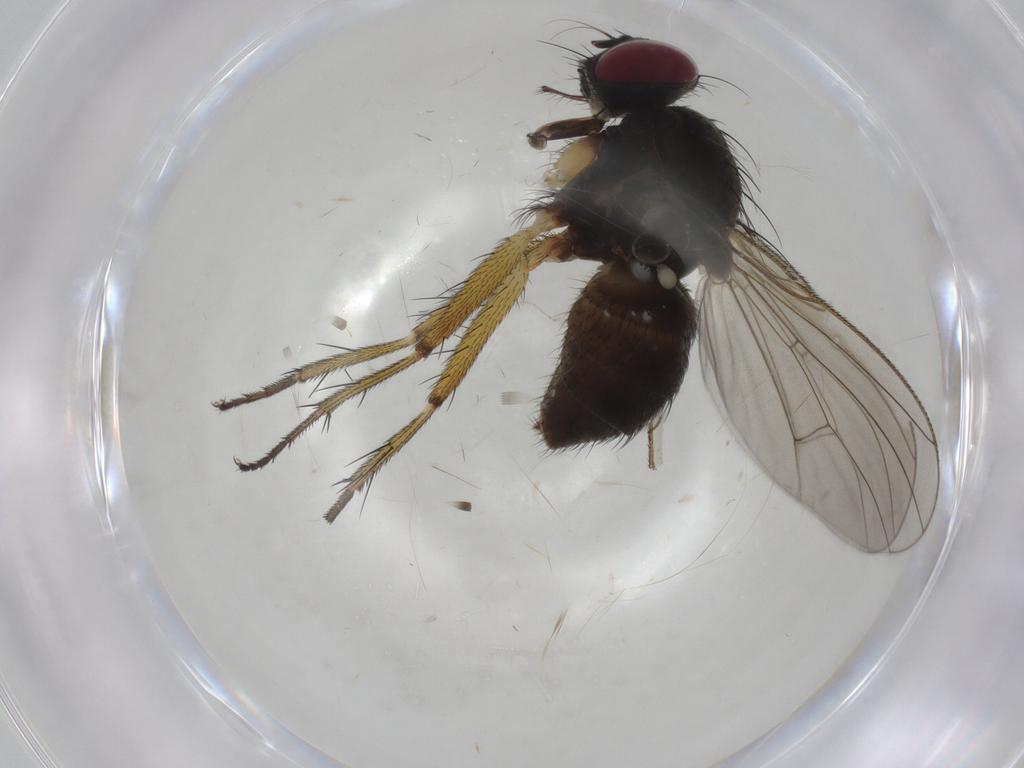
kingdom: Animalia
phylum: Arthropoda
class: Insecta
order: Diptera
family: Muscidae
